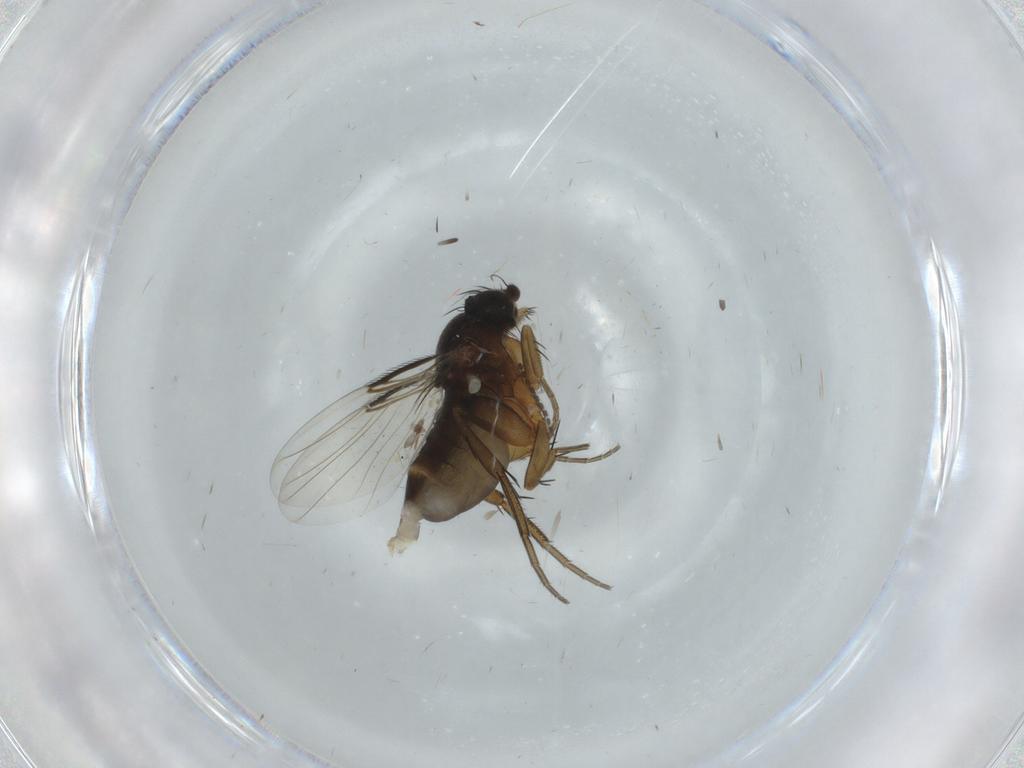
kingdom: Animalia
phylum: Arthropoda
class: Insecta
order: Diptera
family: Phoridae
